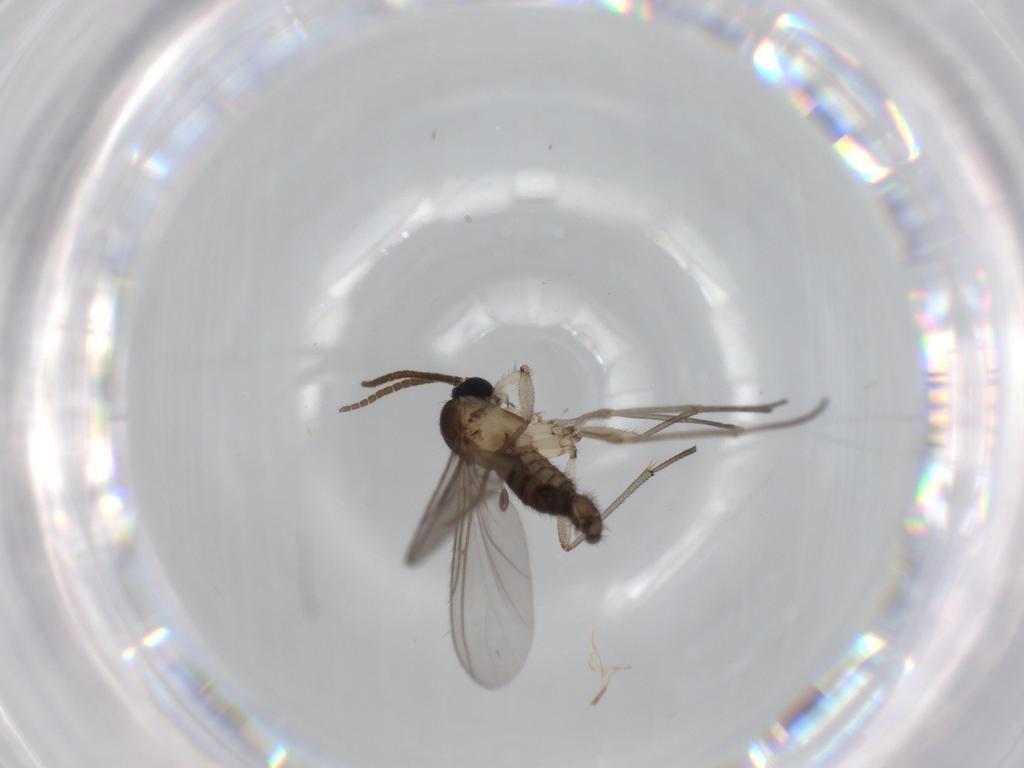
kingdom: Animalia
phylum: Arthropoda
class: Insecta
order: Diptera
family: Sciaridae
